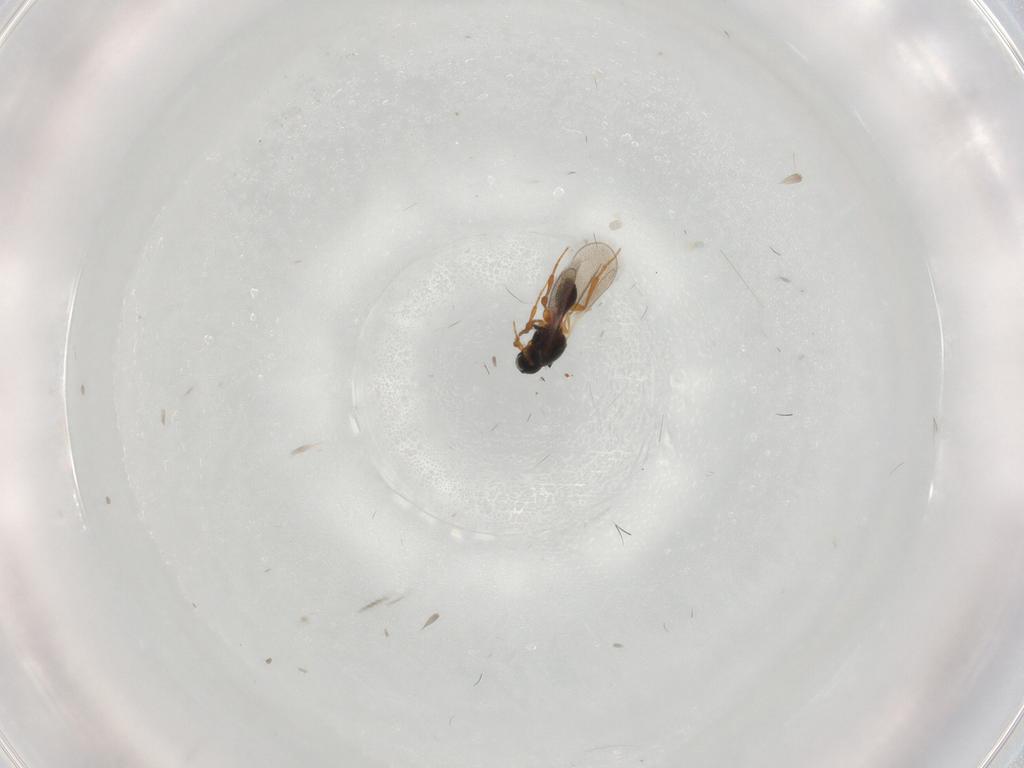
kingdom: Animalia
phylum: Arthropoda
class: Insecta
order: Hymenoptera
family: Platygastridae
